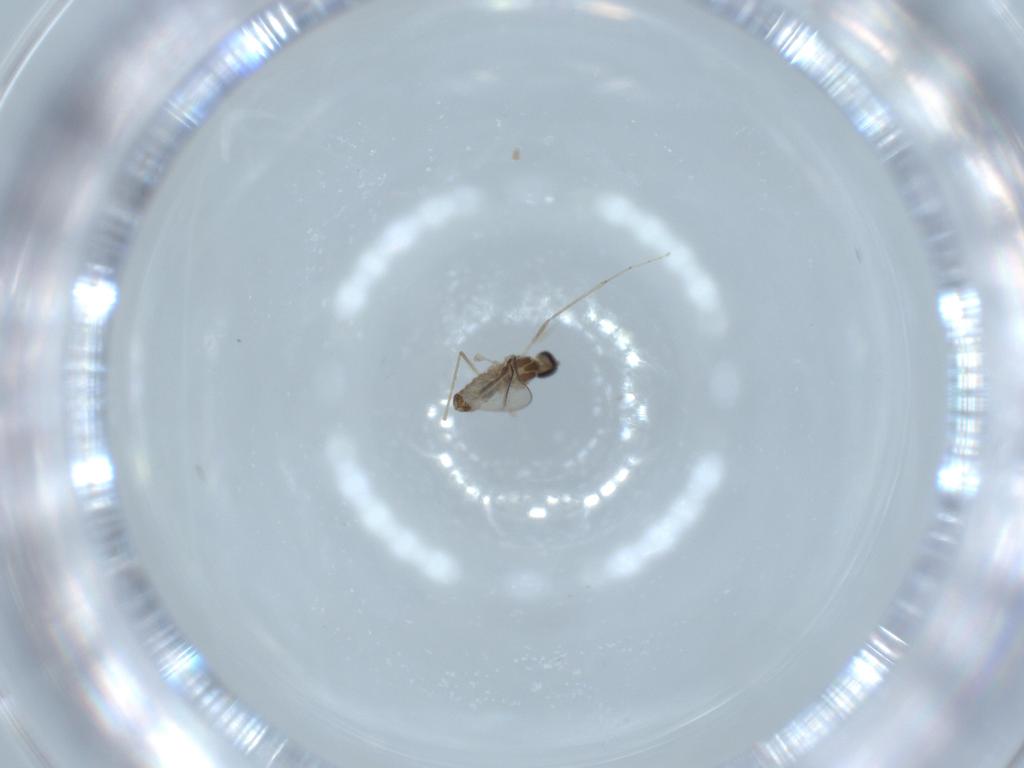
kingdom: Animalia
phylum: Arthropoda
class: Insecta
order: Diptera
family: Cecidomyiidae
